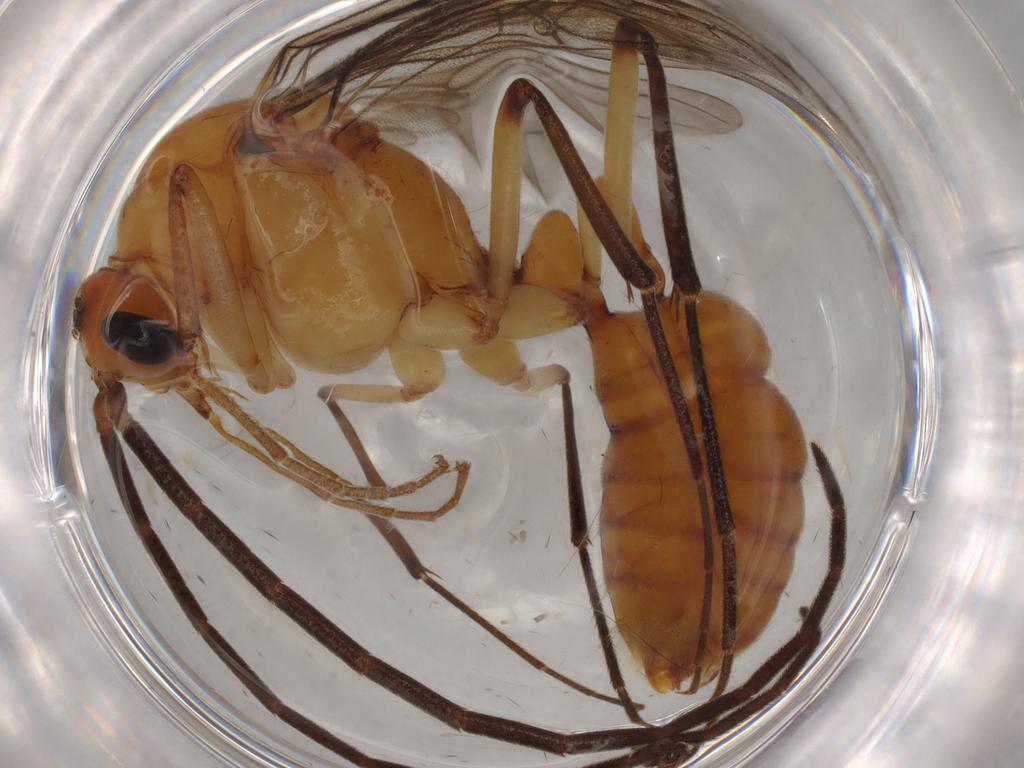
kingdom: Animalia
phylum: Arthropoda
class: Insecta
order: Hymenoptera
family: Formicidae
